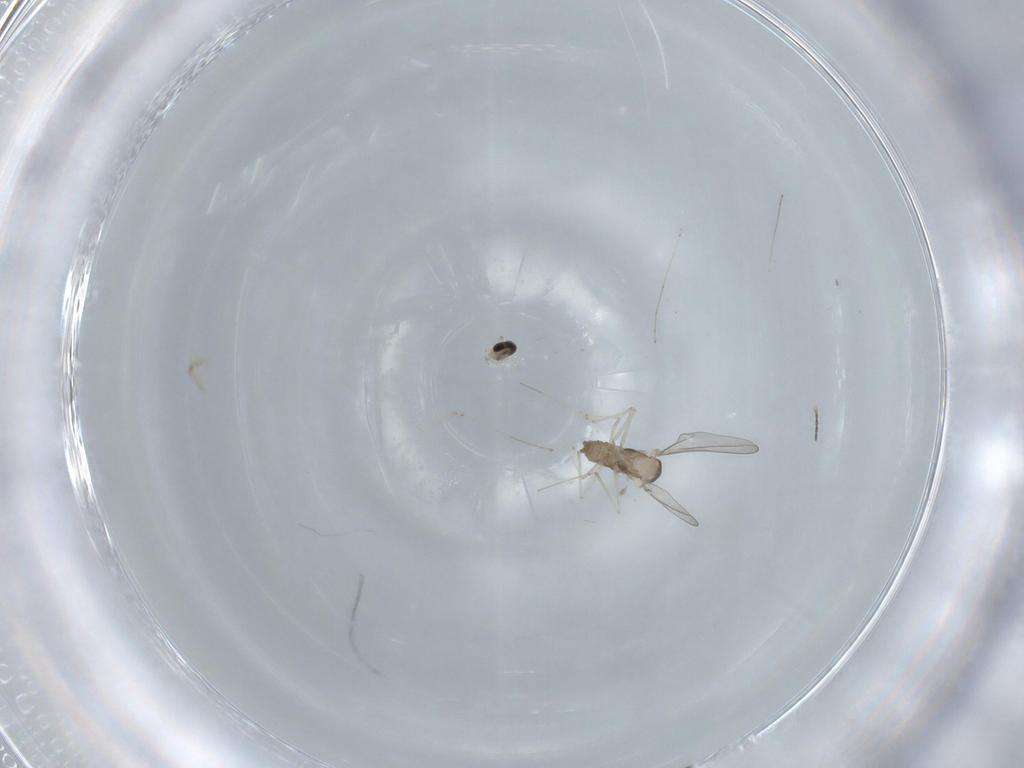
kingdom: Animalia
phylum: Arthropoda
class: Insecta
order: Diptera
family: Cecidomyiidae
